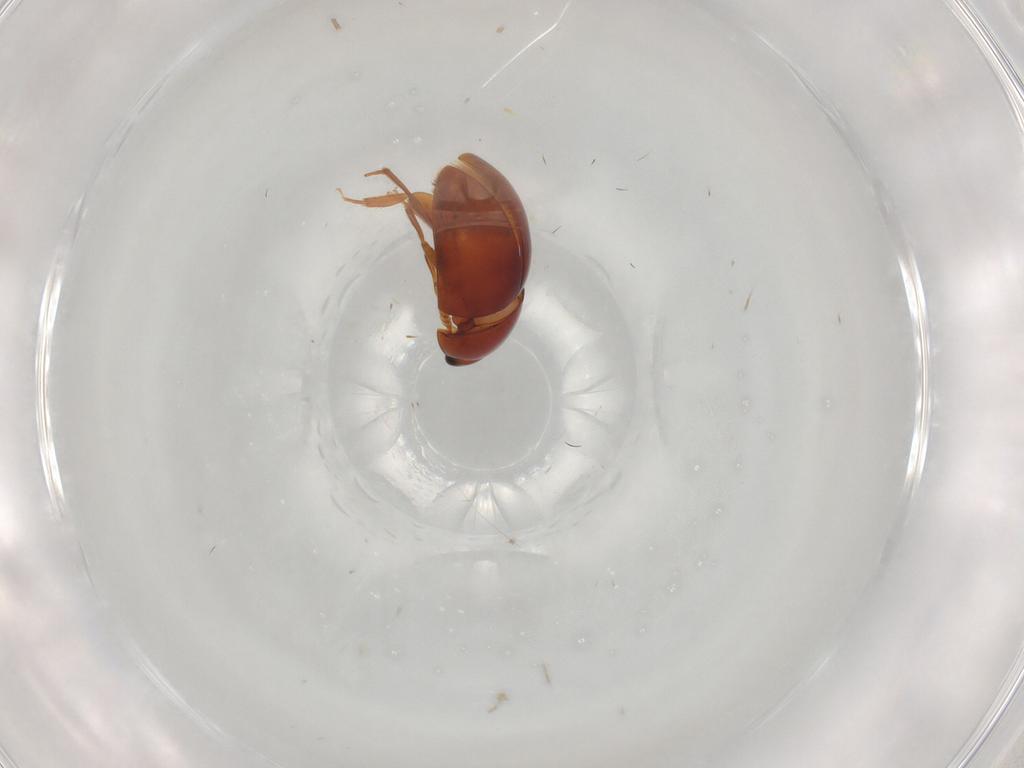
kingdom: Animalia
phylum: Arthropoda
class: Insecta
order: Coleoptera
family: Phalacridae
